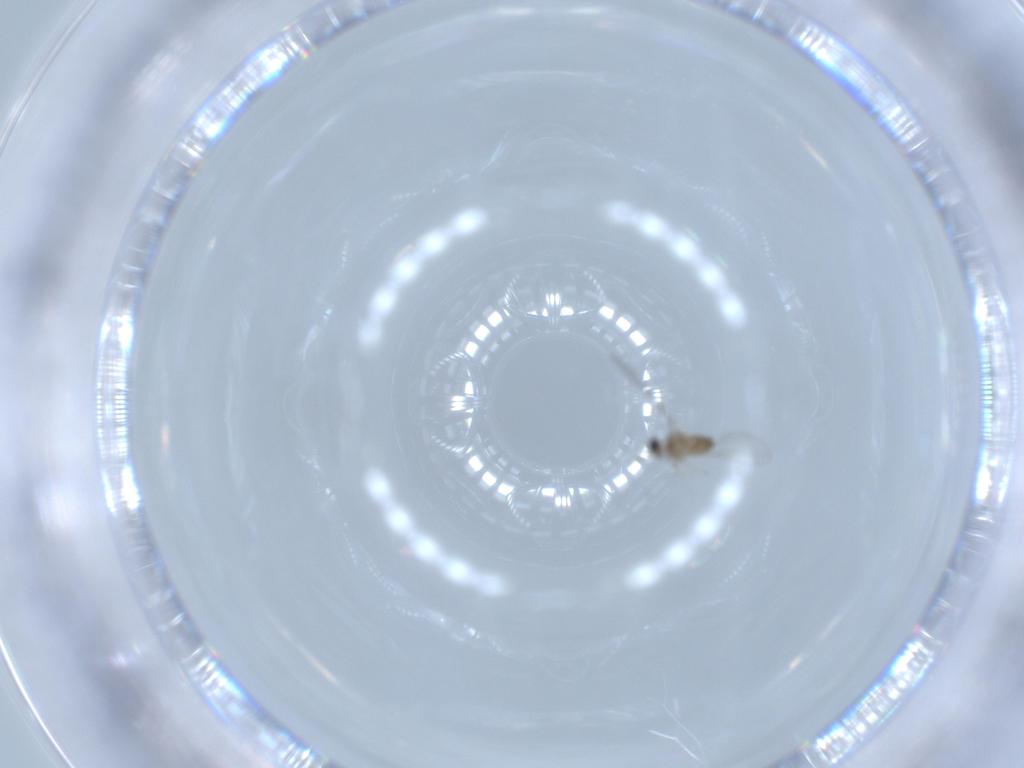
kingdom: Animalia
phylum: Arthropoda
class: Insecta
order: Diptera
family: Cecidomyiidae
